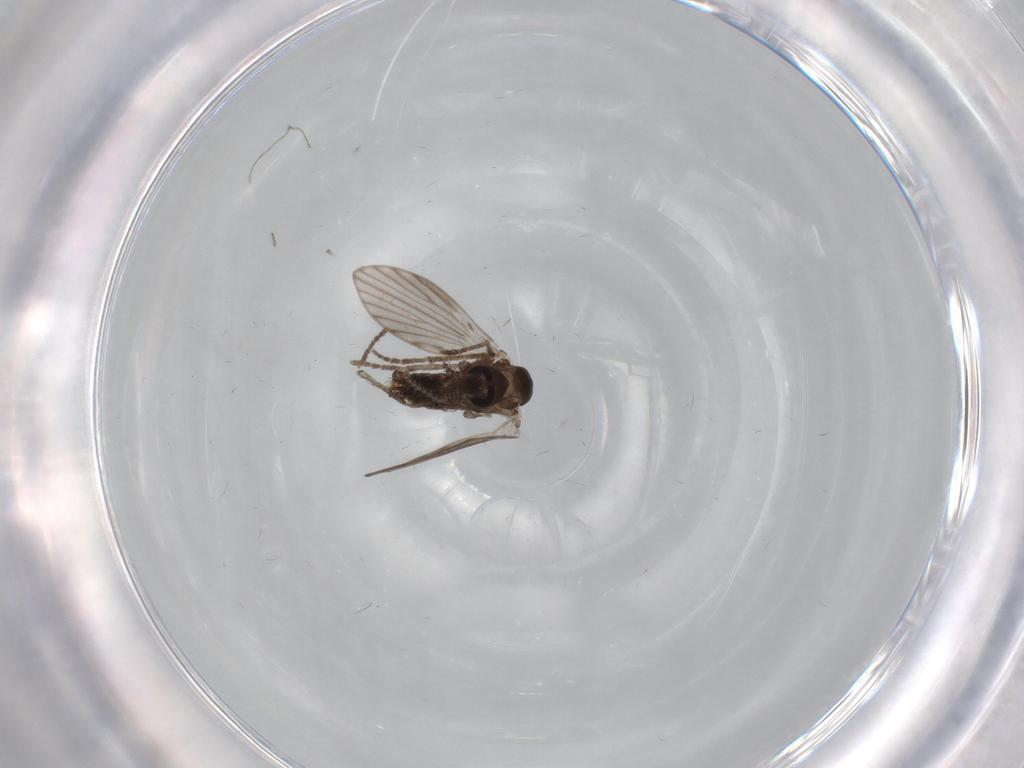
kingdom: Animalia
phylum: Arthropoda
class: Insecta
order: Diptera
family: Psychodidae
